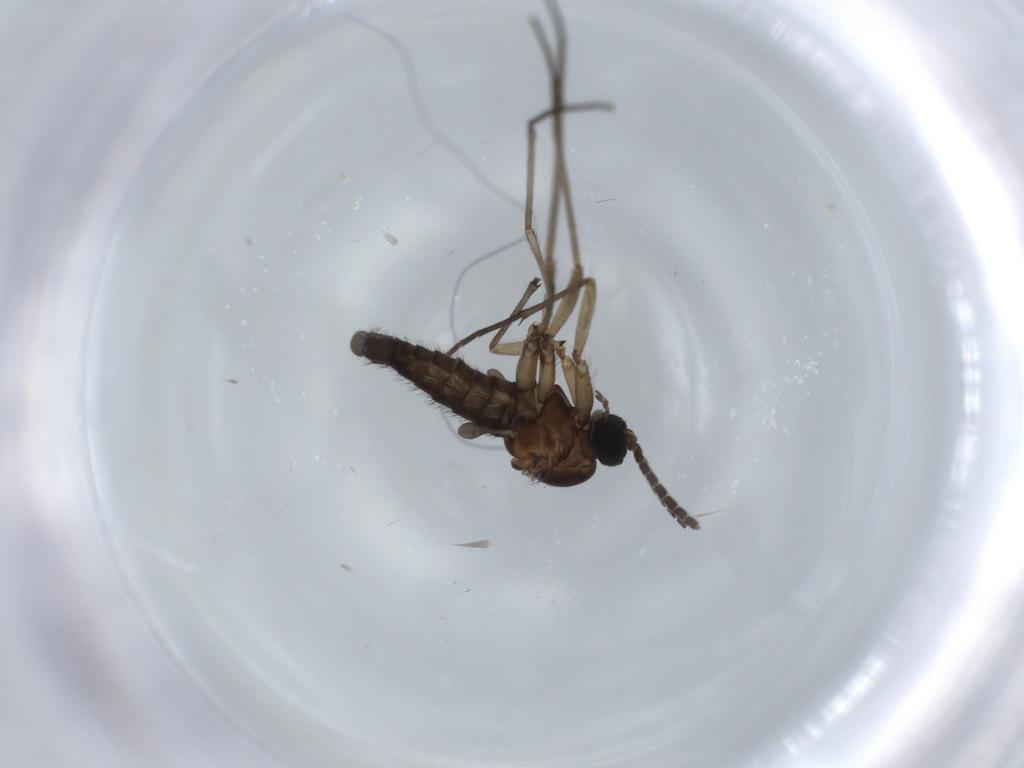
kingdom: Animalia
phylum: Arthropoda
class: Insecta
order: Diptera
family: Sciaridae
